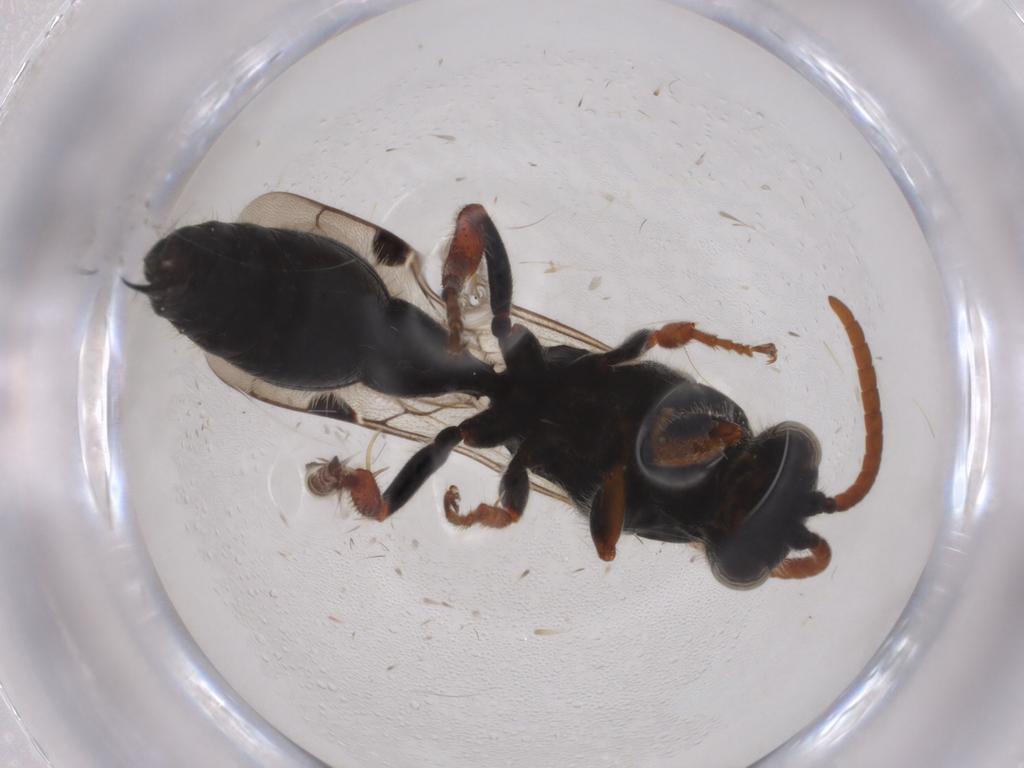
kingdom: Animalia
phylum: Arthropoda
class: Insecta
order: Hymenoptera
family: Tiphiidae
